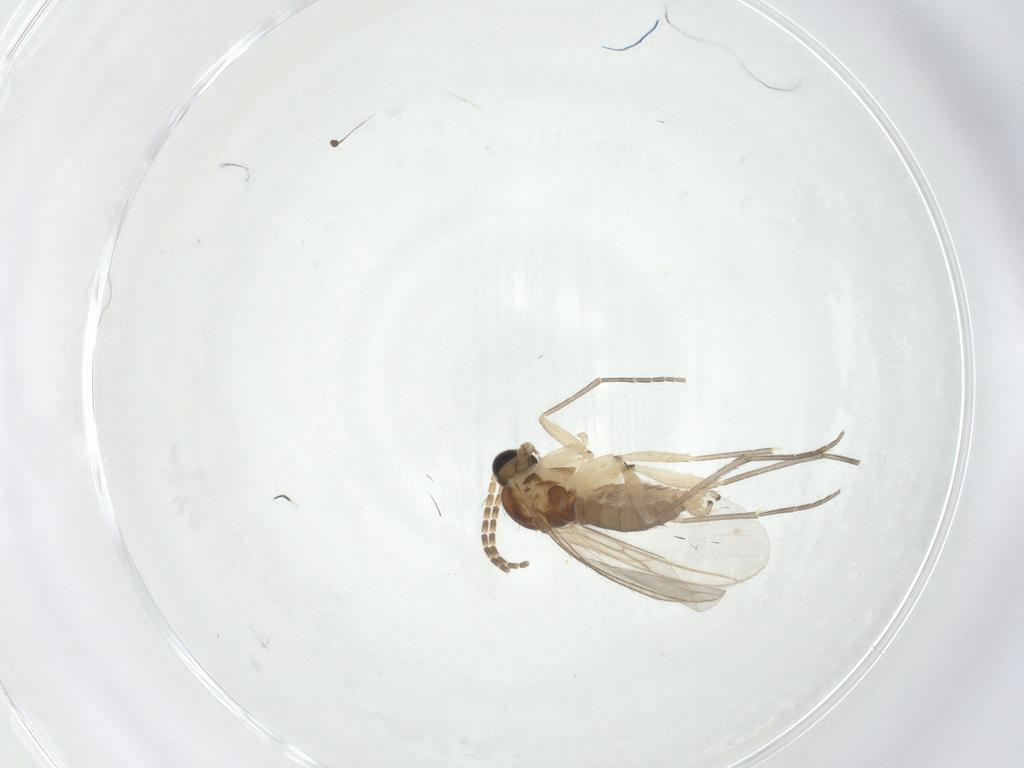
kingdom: Animalia
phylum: Arthropoda
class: Insecta
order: Diptera
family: Sciaridae
